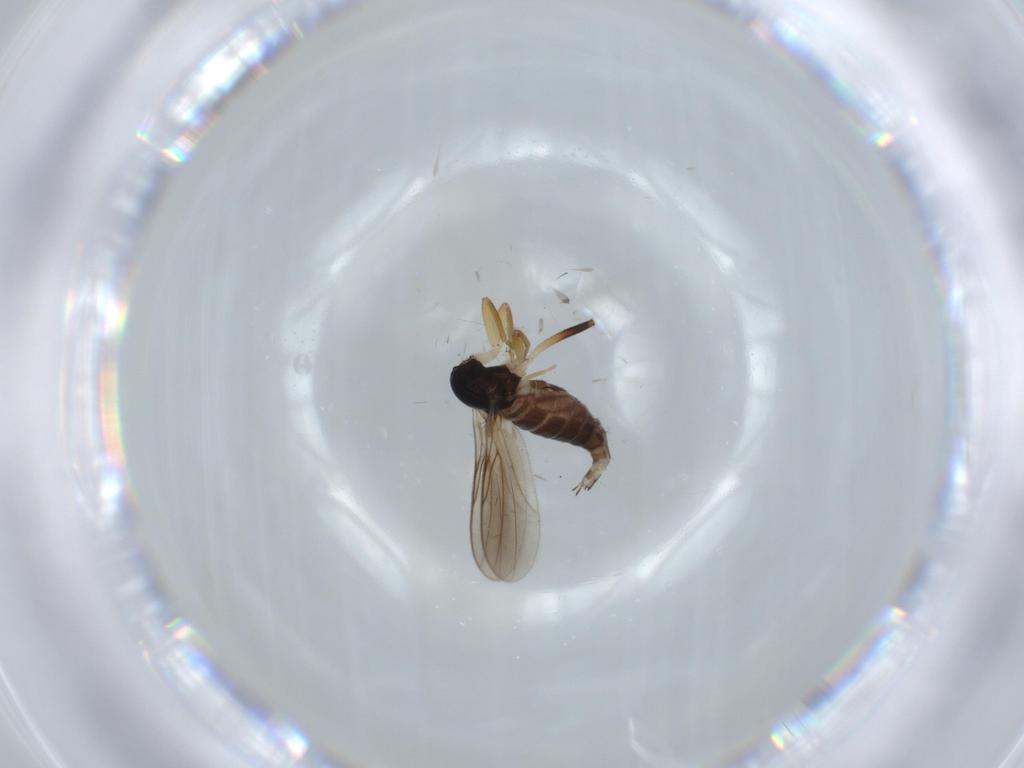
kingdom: Animalia
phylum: Arthropoda
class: Insecta
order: Diptera
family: Hybotidae
